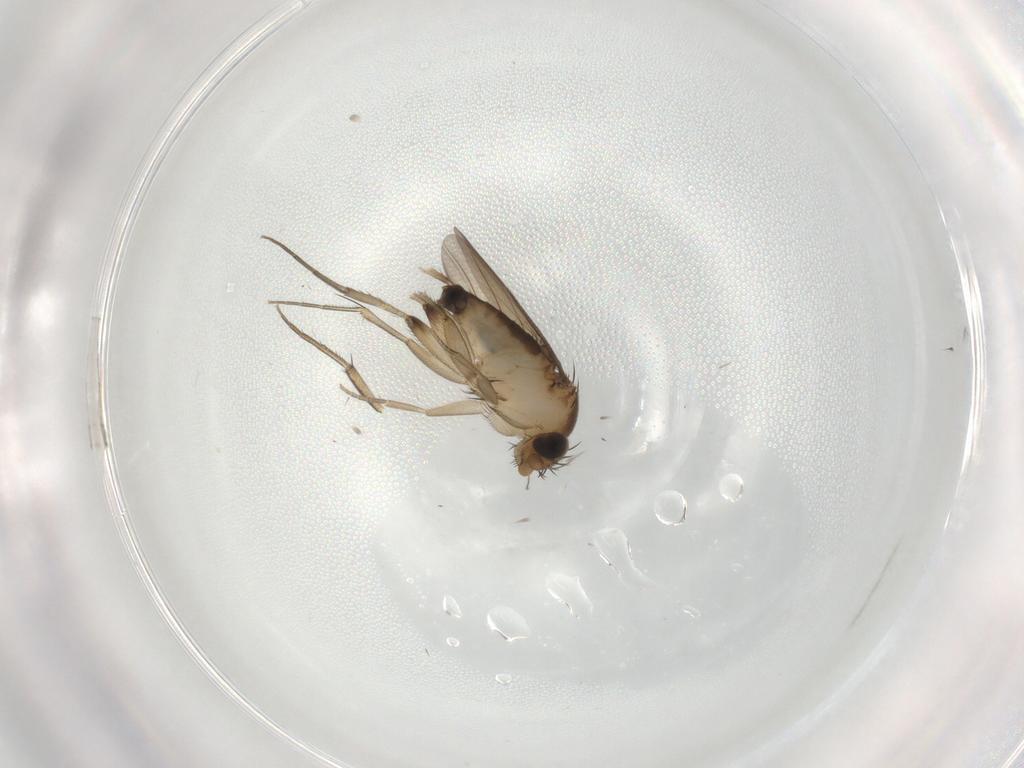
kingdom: Animalia
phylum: Arthropoda
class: Insecta
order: Diptera
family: Phoridae
